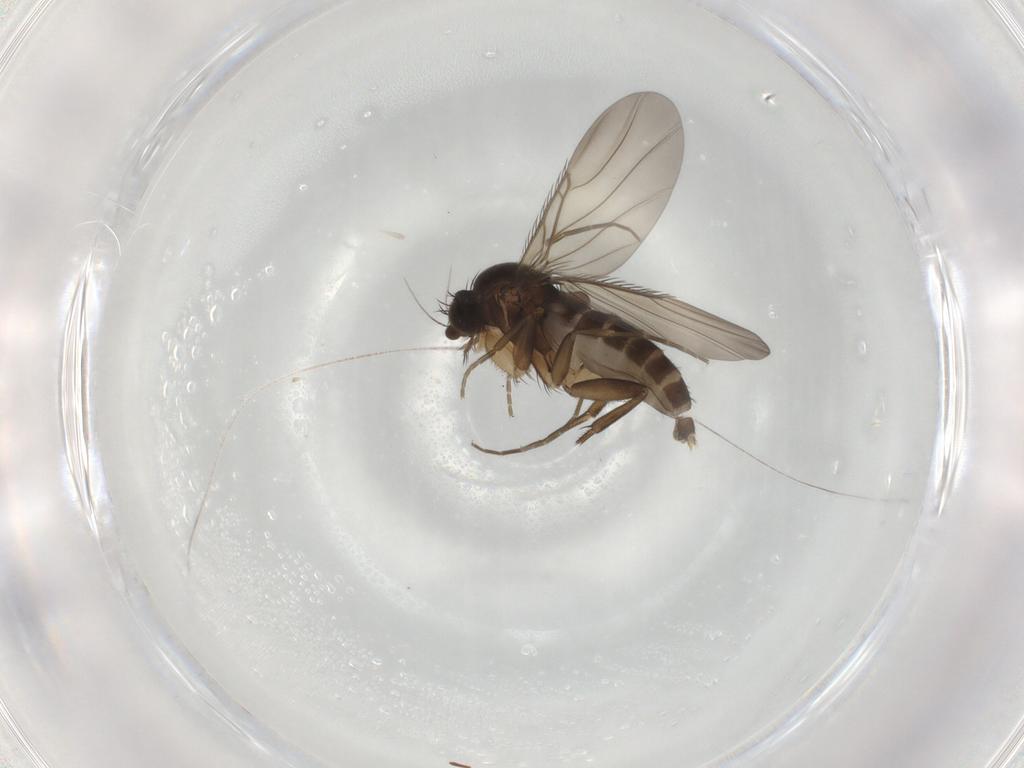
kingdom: Animalia
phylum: Arthropoda
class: Insecta
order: Diptera
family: Phoridae
